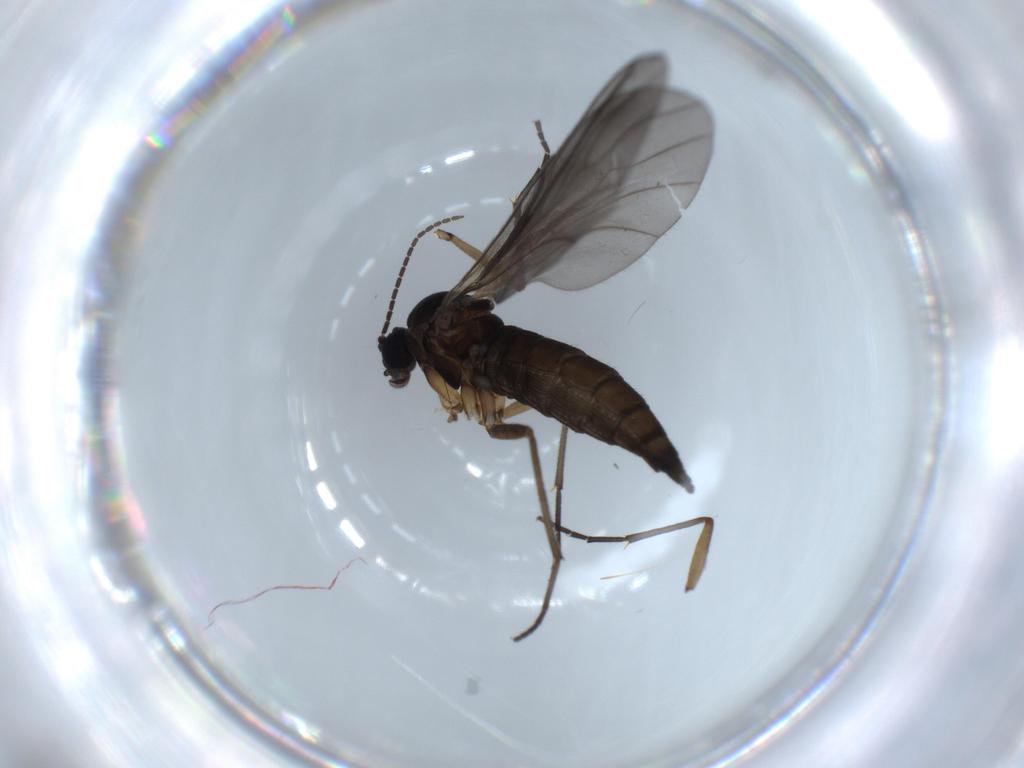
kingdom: Animalia
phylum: Arthropoda
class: Insecta
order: Diptera
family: Sciaridae
